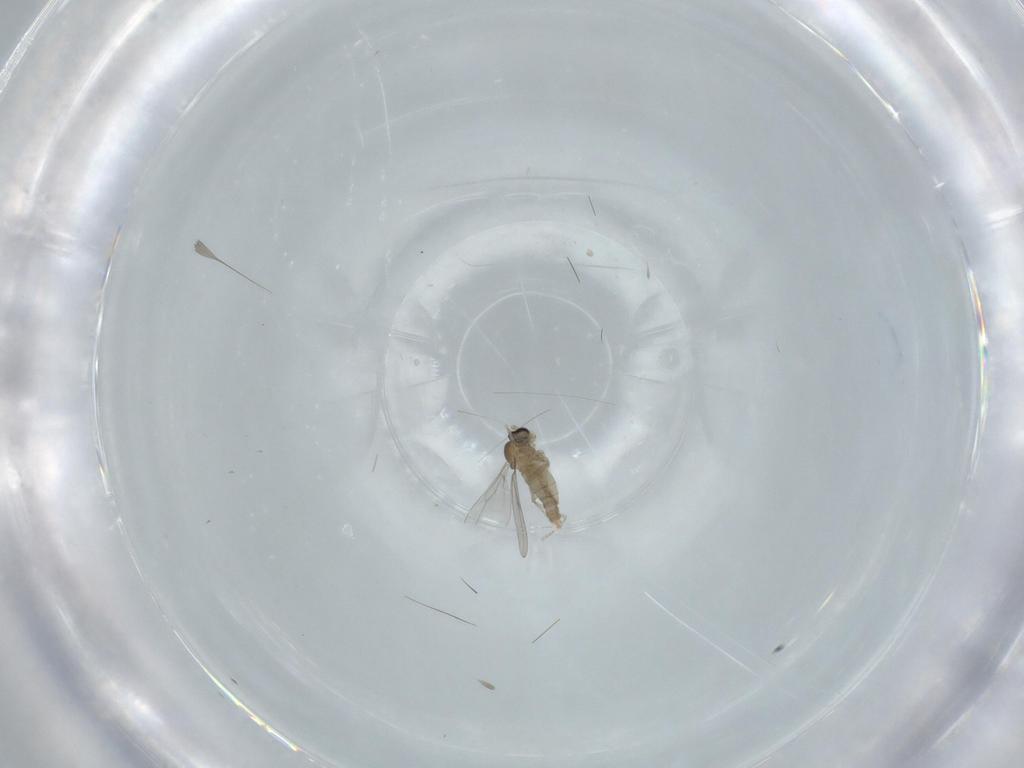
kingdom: Animalia
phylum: Arthropoda
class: Insecta
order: Diptera
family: Cecidomyiidae
